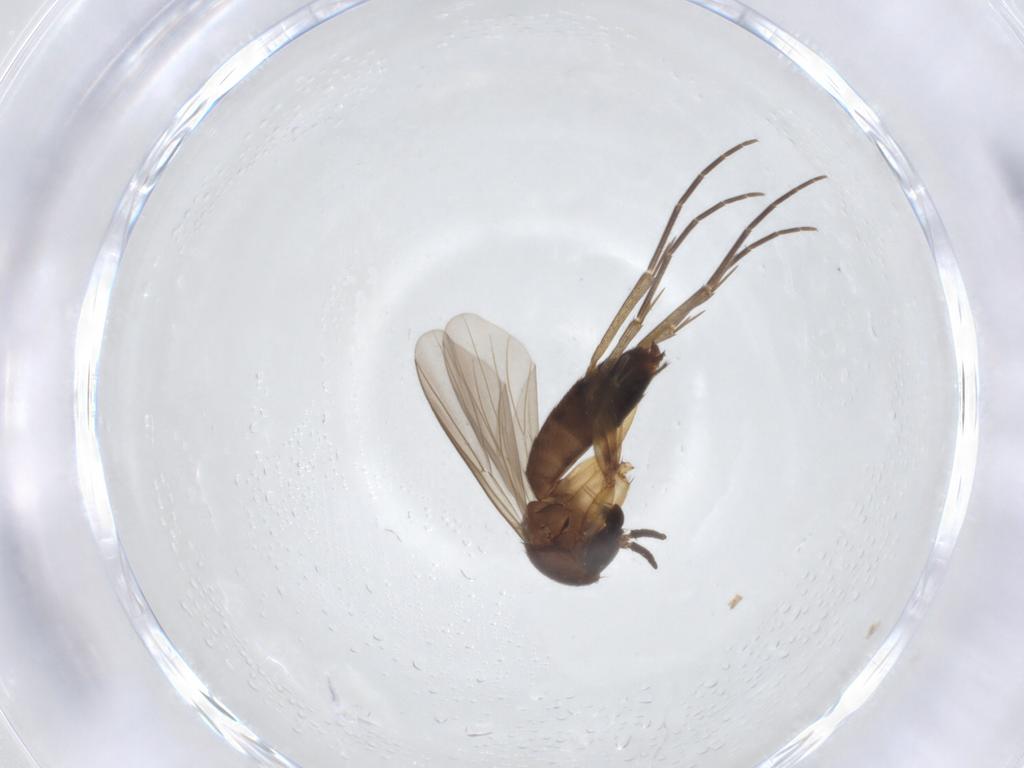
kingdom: Animalia
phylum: Arthropoda
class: Insecta
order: Diptera
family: Mycetophilidae
